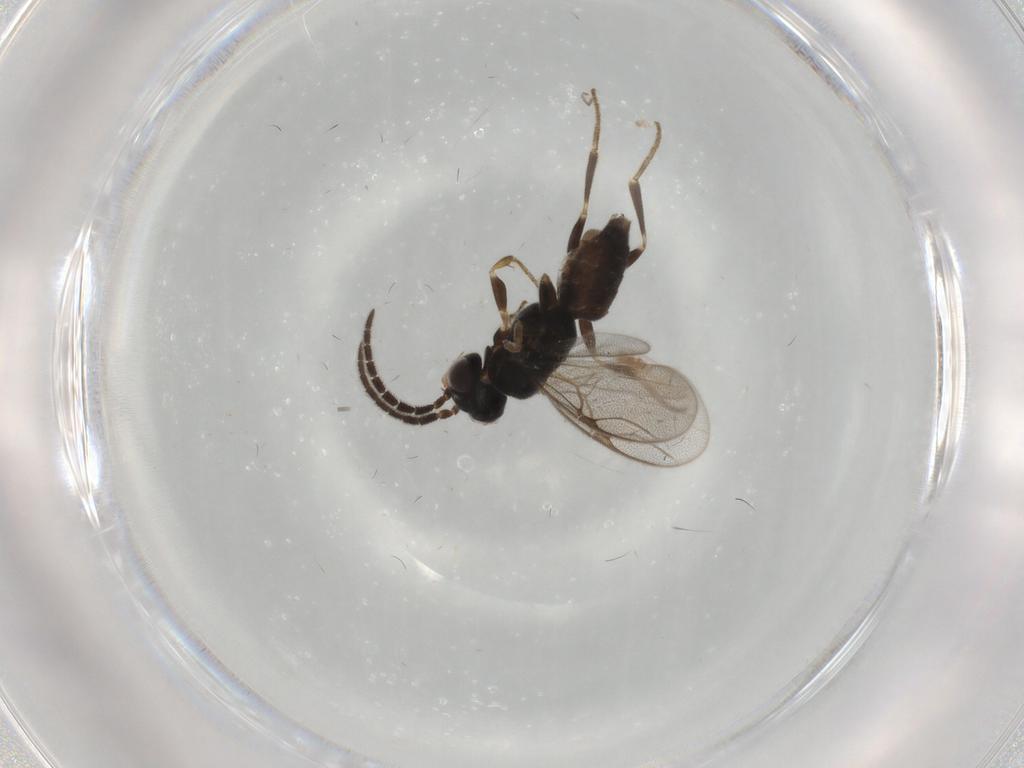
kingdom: Animalia
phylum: Arthropoda
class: Insecta
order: Hymenoptera
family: Dryinidae
